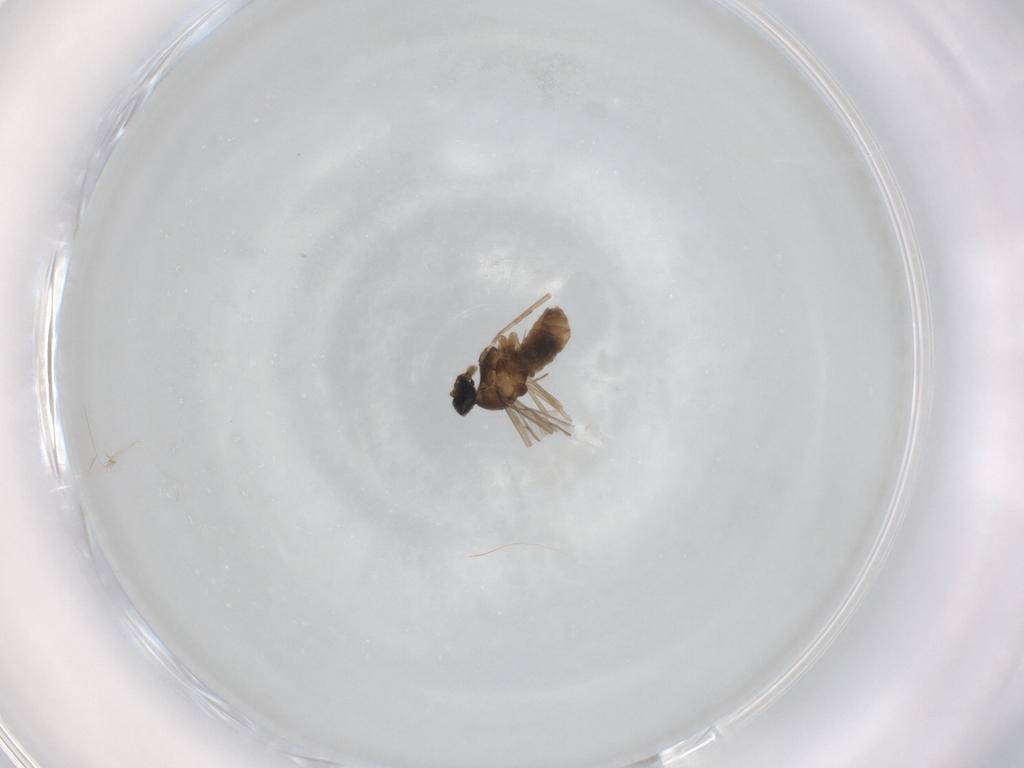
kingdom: Animalia
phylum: Arthropoda
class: Insecta
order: Diptera
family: Cecidomyiidae
